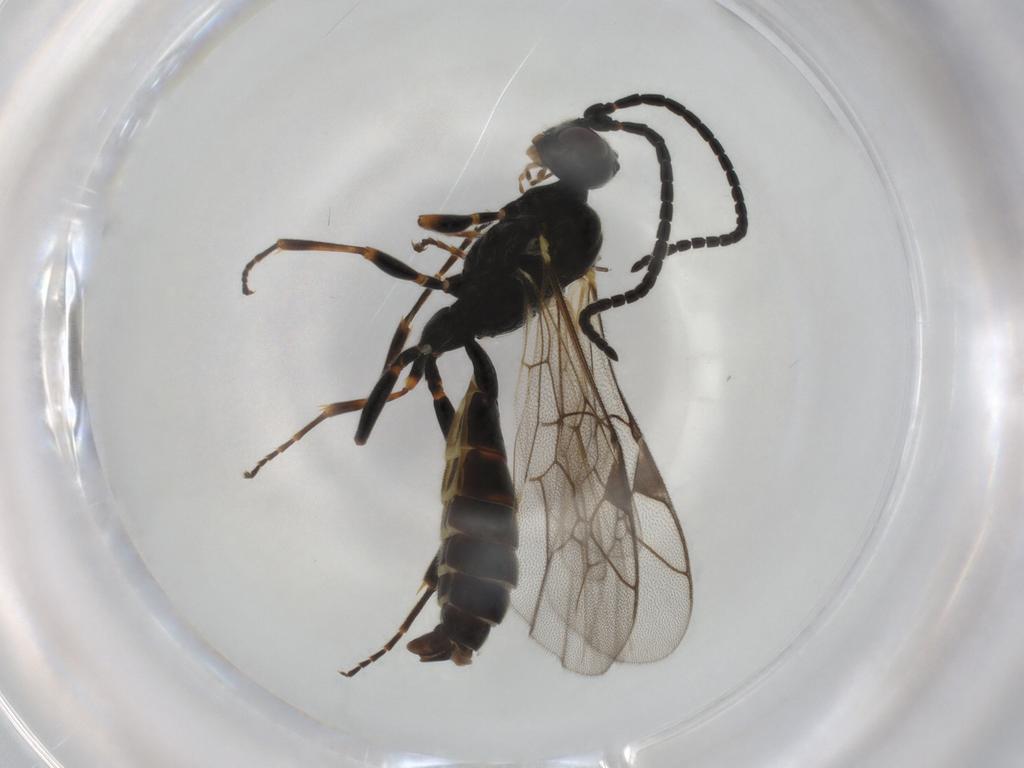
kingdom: Animalia
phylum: Arthropoda
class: Insecta
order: Hymenoptera
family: Ichneumonidae
